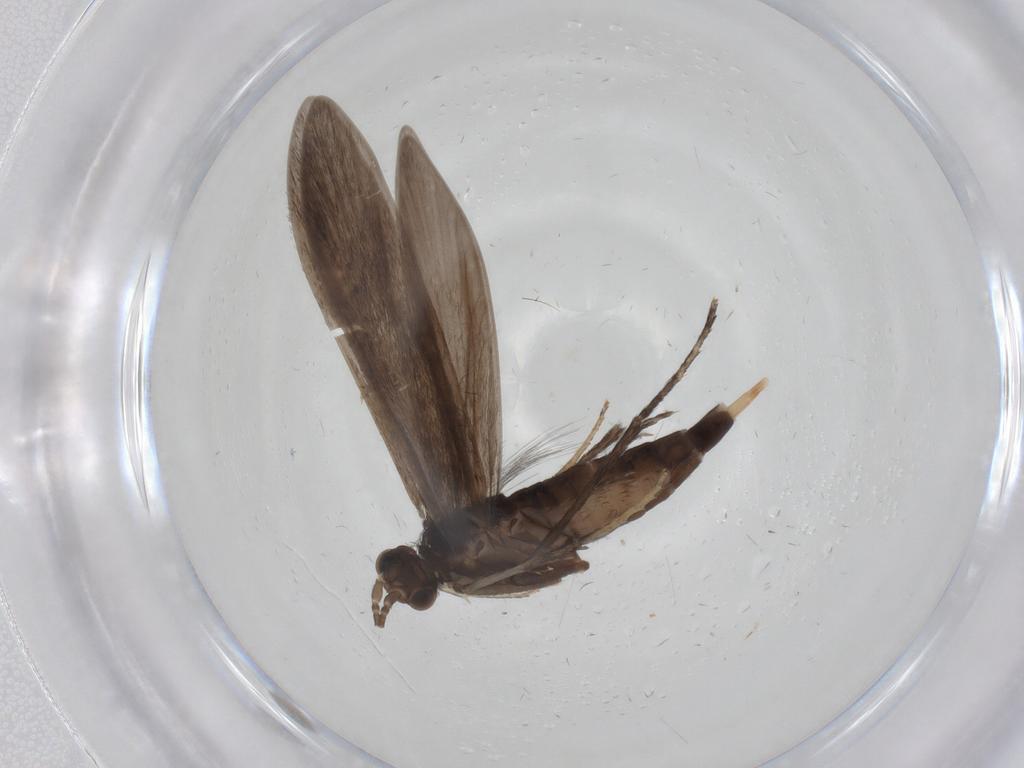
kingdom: Animalia
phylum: Arthropoda
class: Insecta
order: Trichoptera
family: Xiphocentronidae
